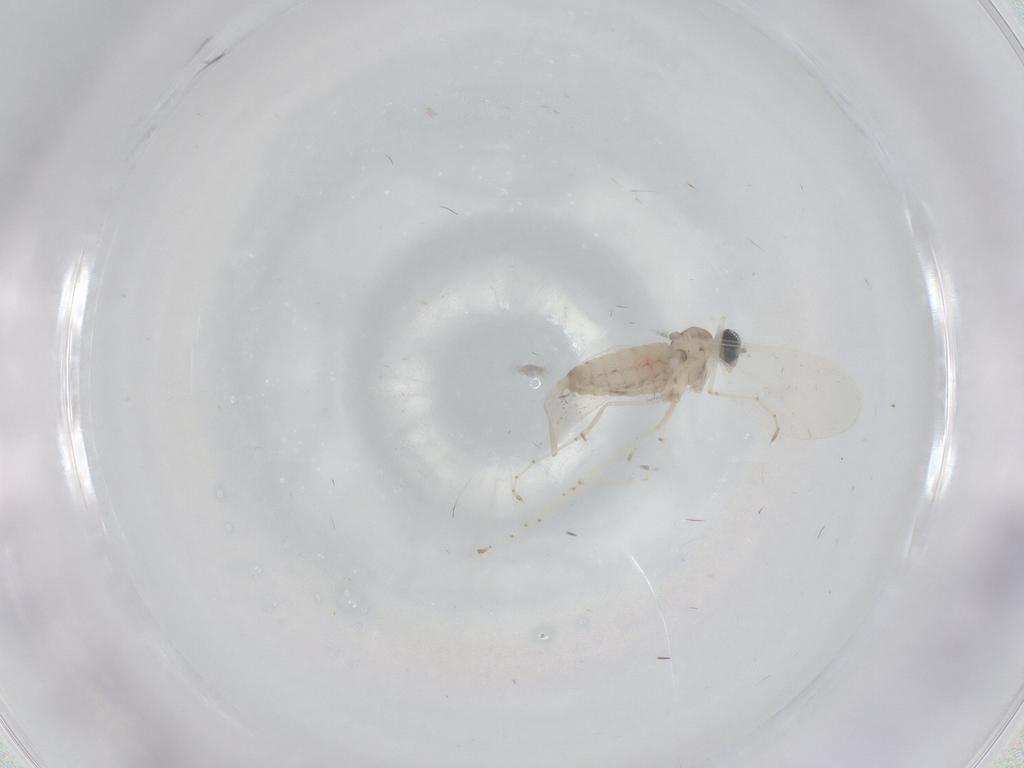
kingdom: Animalia
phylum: Arthropoda
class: Insecta
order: Diptera
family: Cecidomyiidae
